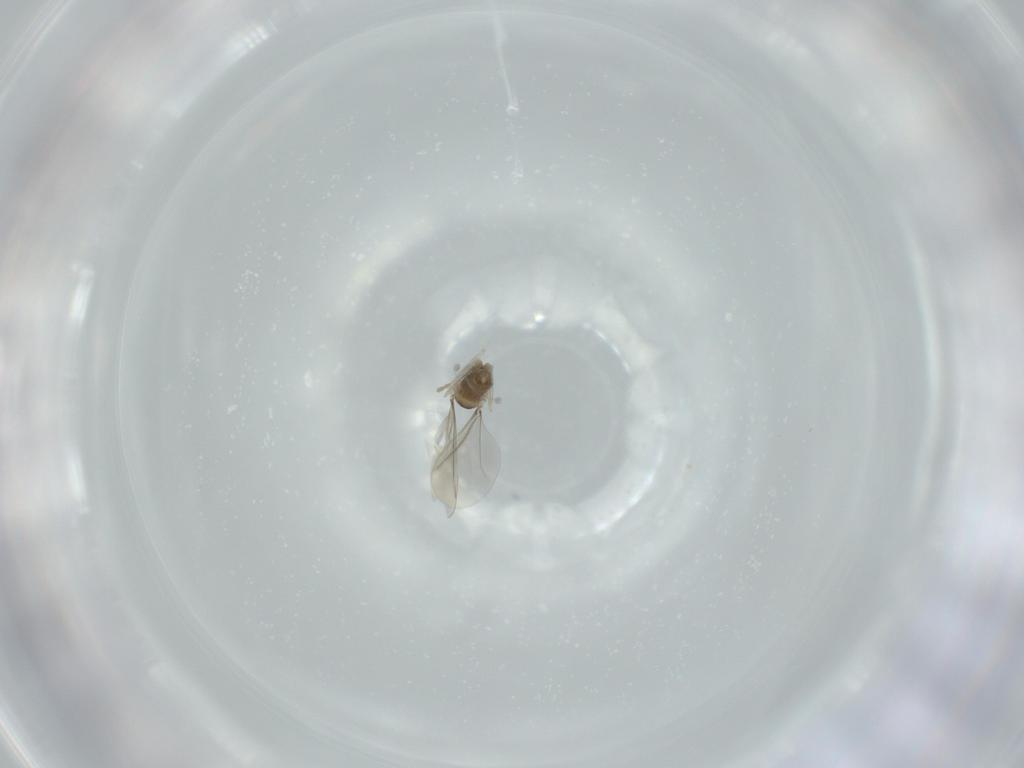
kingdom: Animalia
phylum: Arthropoda
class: Insecta
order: Diptera
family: Cecidomyiidae
